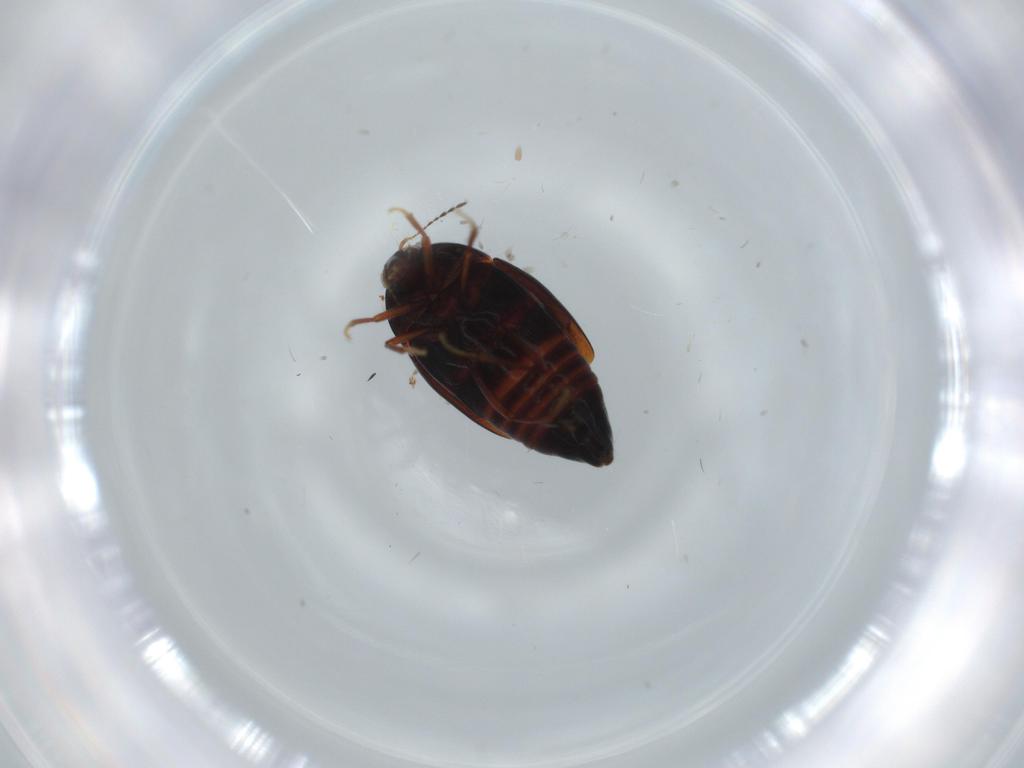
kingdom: Animalia
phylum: Arthropoda
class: Insecta
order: Coleoptera
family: Staphylinidae
